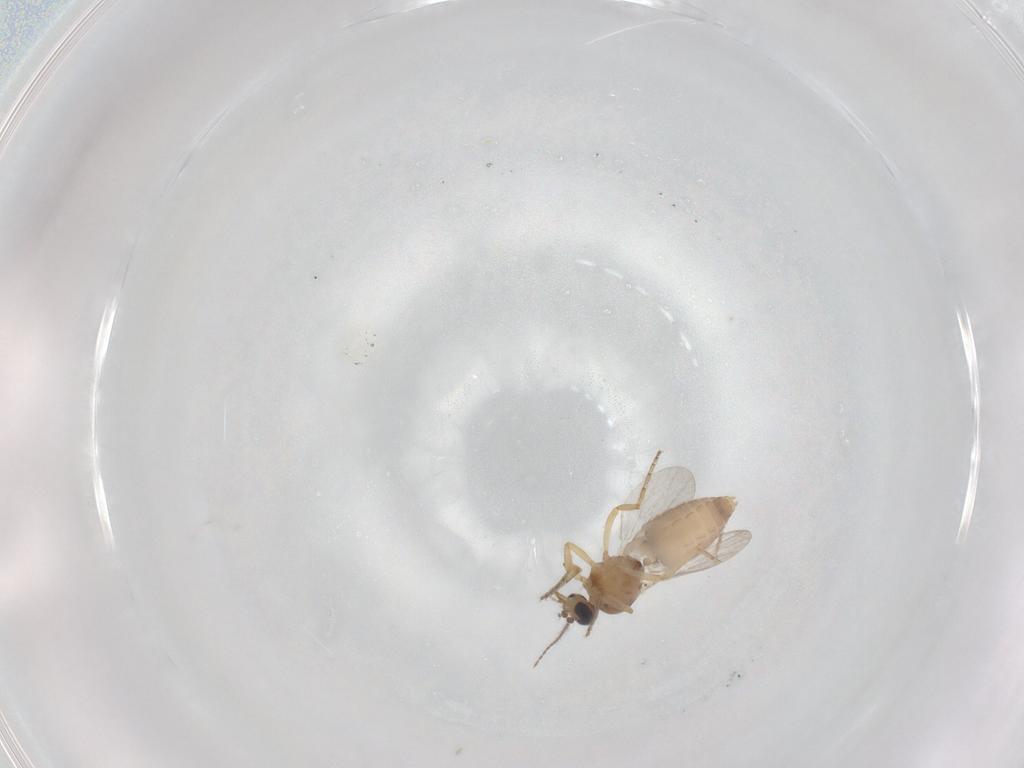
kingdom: Animalia
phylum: Arthropoda
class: Insecta
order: Diptera
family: Ceratopogonidae
